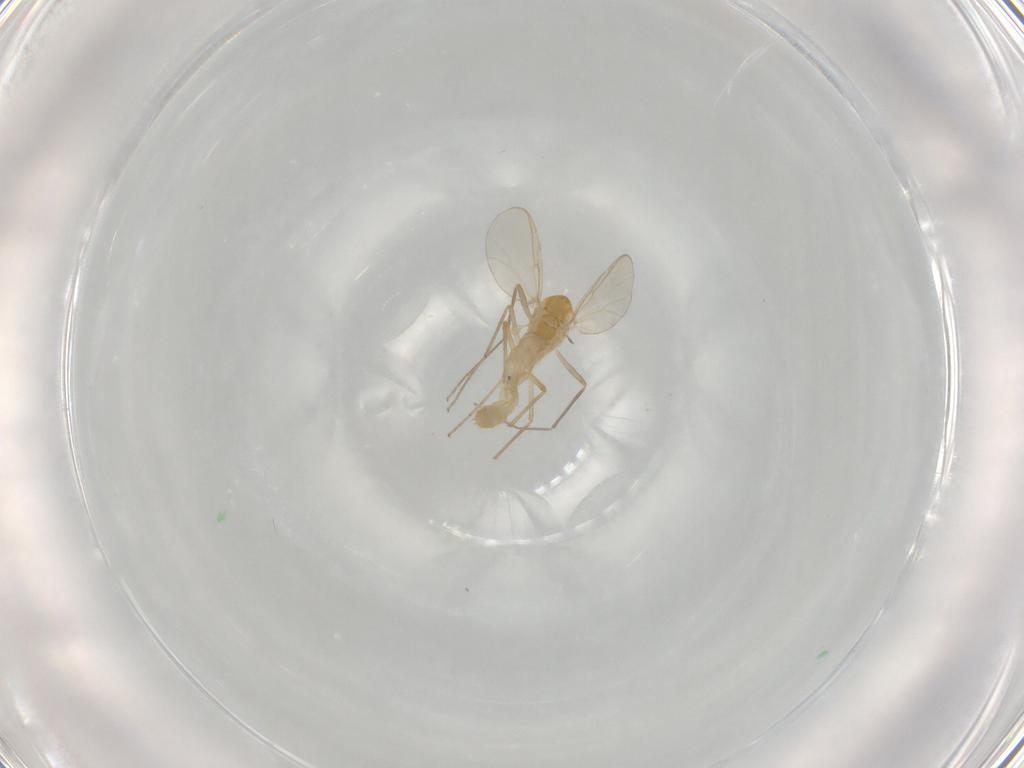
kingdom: Animalia
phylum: Arthropoda
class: Insecta
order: Diptera
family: Chironomidae
